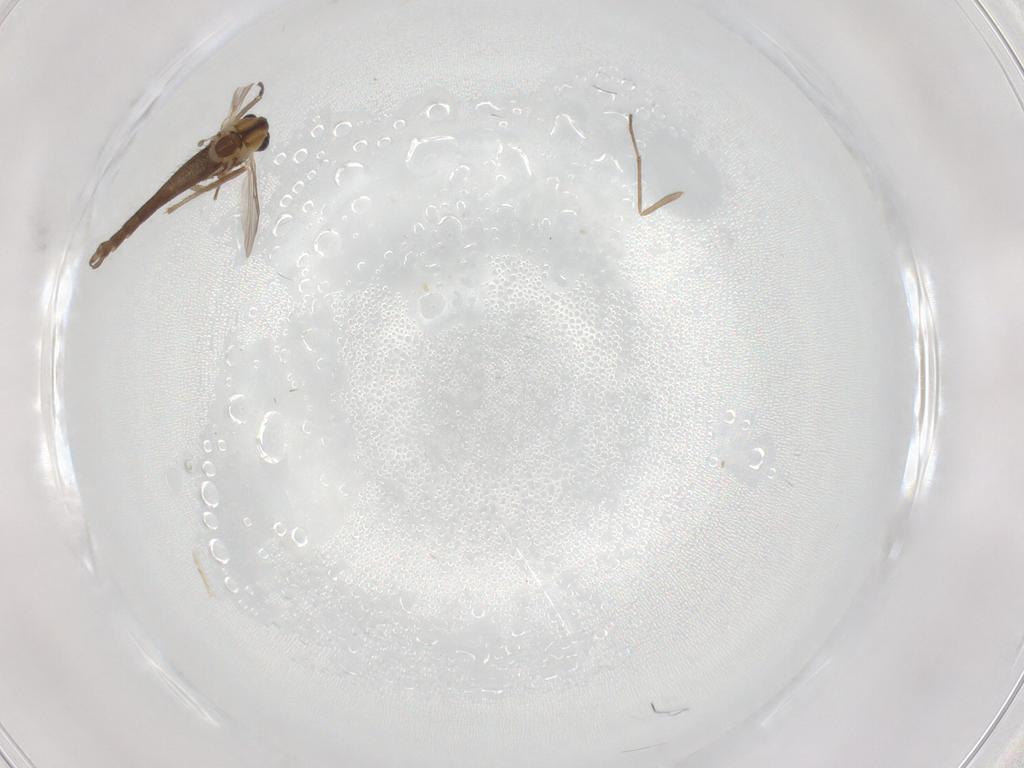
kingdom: Animalia
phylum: Arthropoda
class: Insecta
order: Diptera
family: Chironomidae
